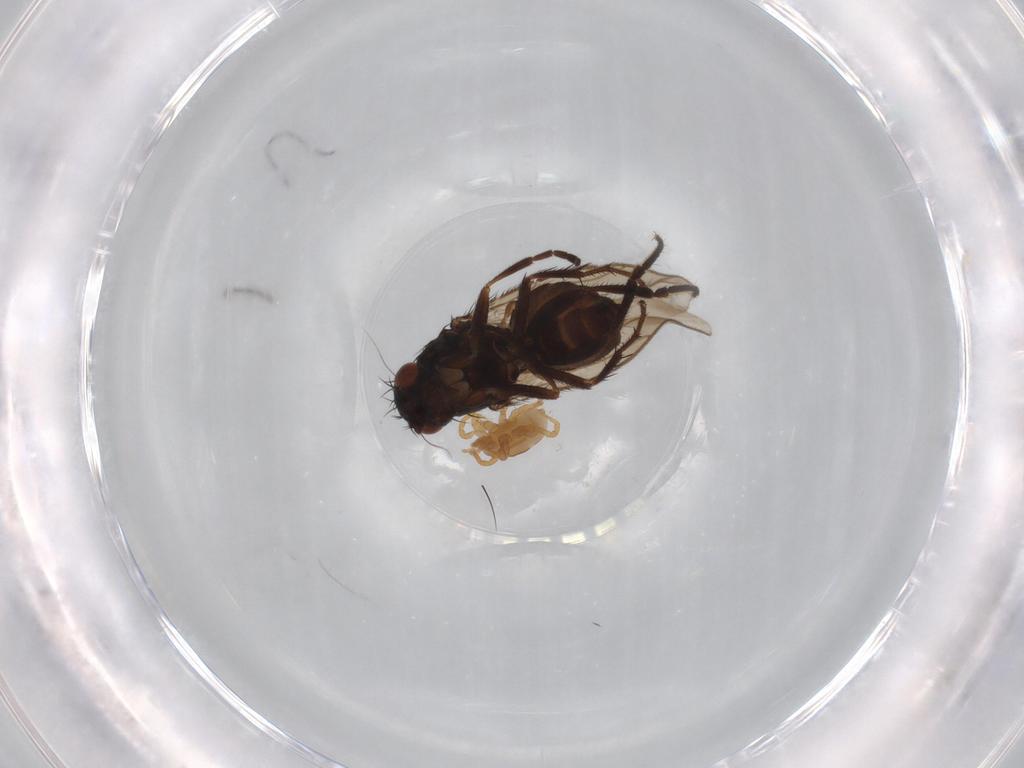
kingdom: Animalia
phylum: Arthropoda
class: Insecta
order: Diptera
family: Sphaeroceridae
